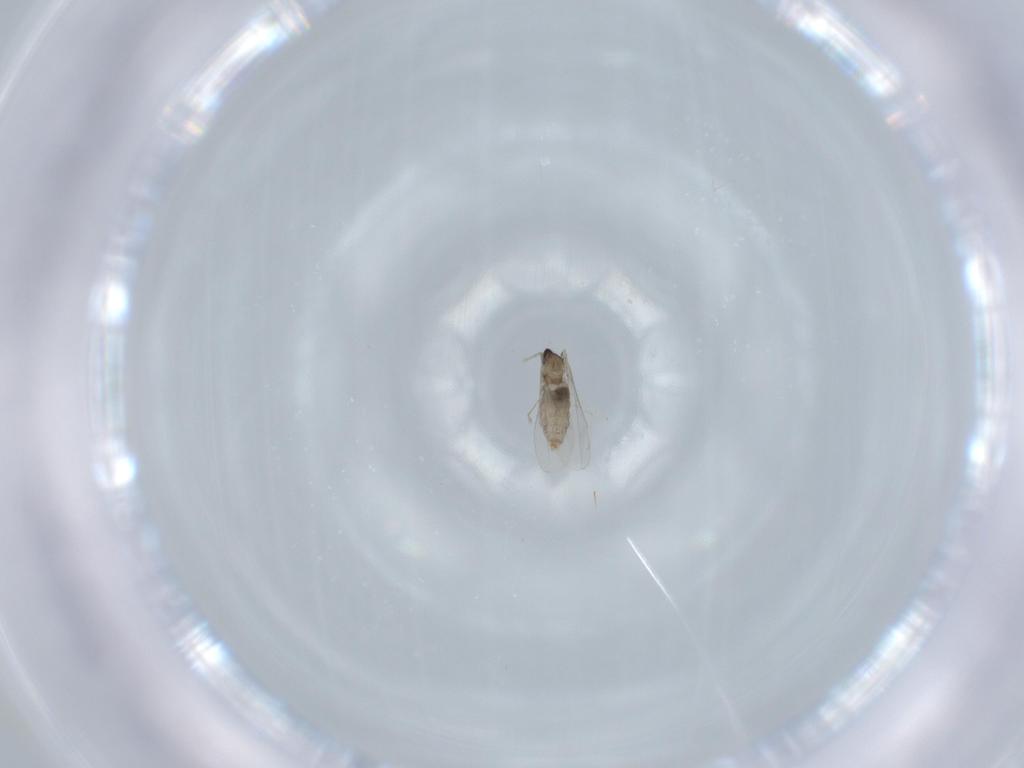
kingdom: Animalia
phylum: Arthropoda
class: Insecta
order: Diptera
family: Cecidomyiidae
